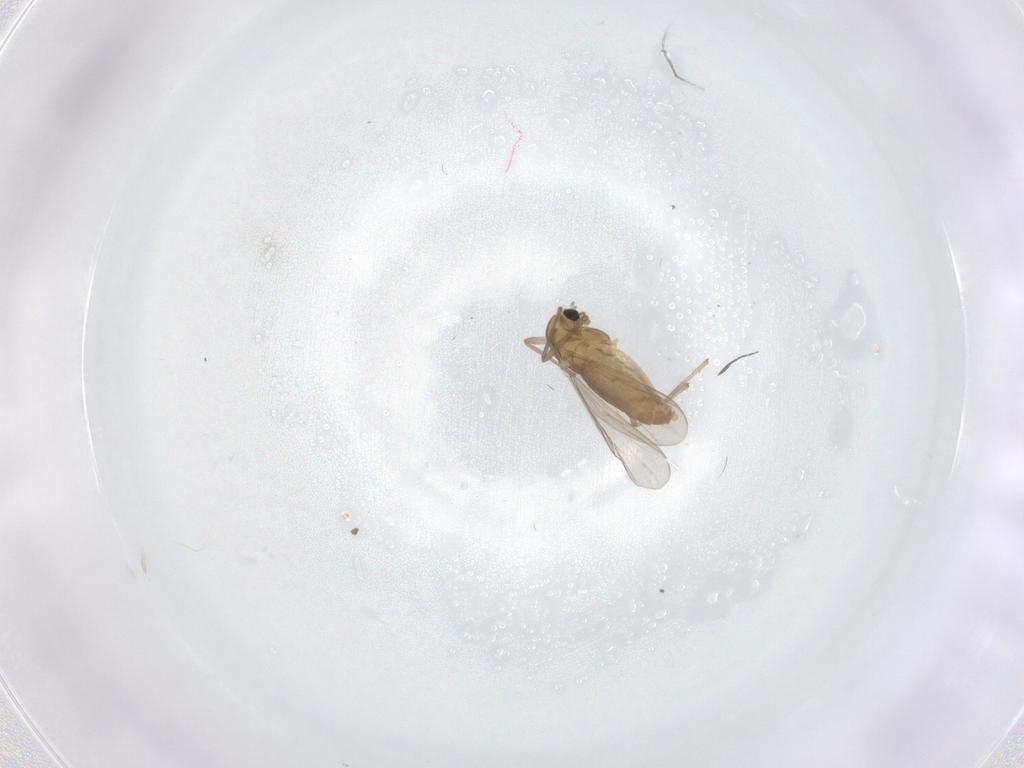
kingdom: Animalia
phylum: Arthropoda
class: Insecta
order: Diptera
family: Chironomidae
